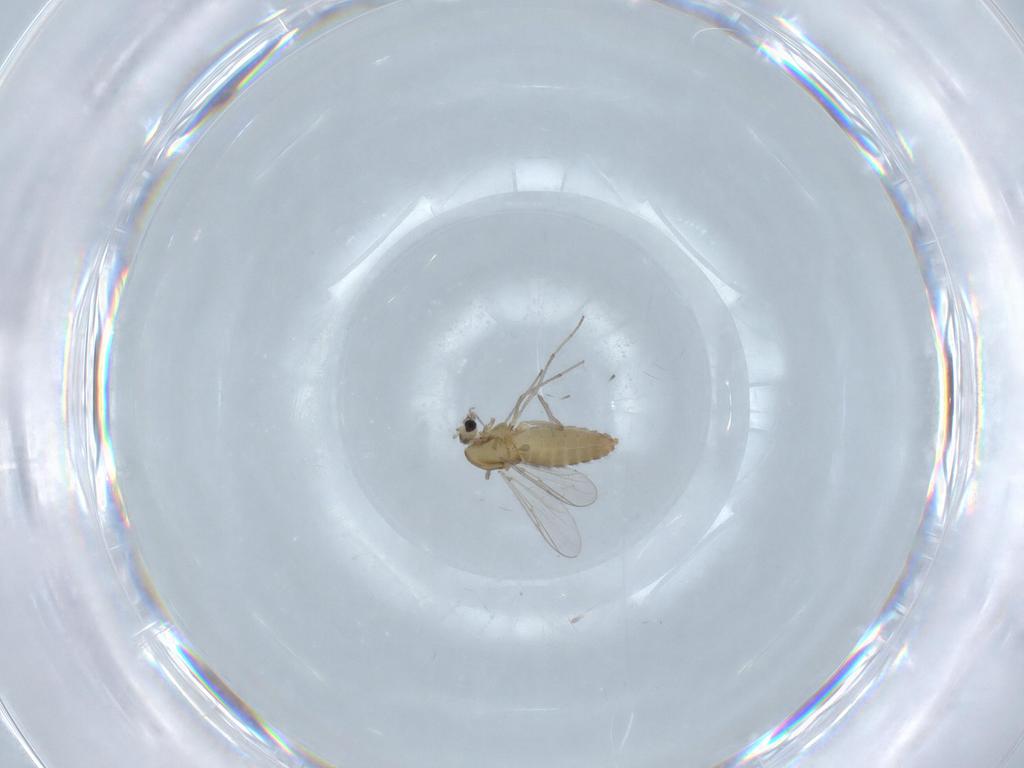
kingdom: Animalia
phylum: Arthropoda
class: Insecta
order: Diptera
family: Chironomidae
